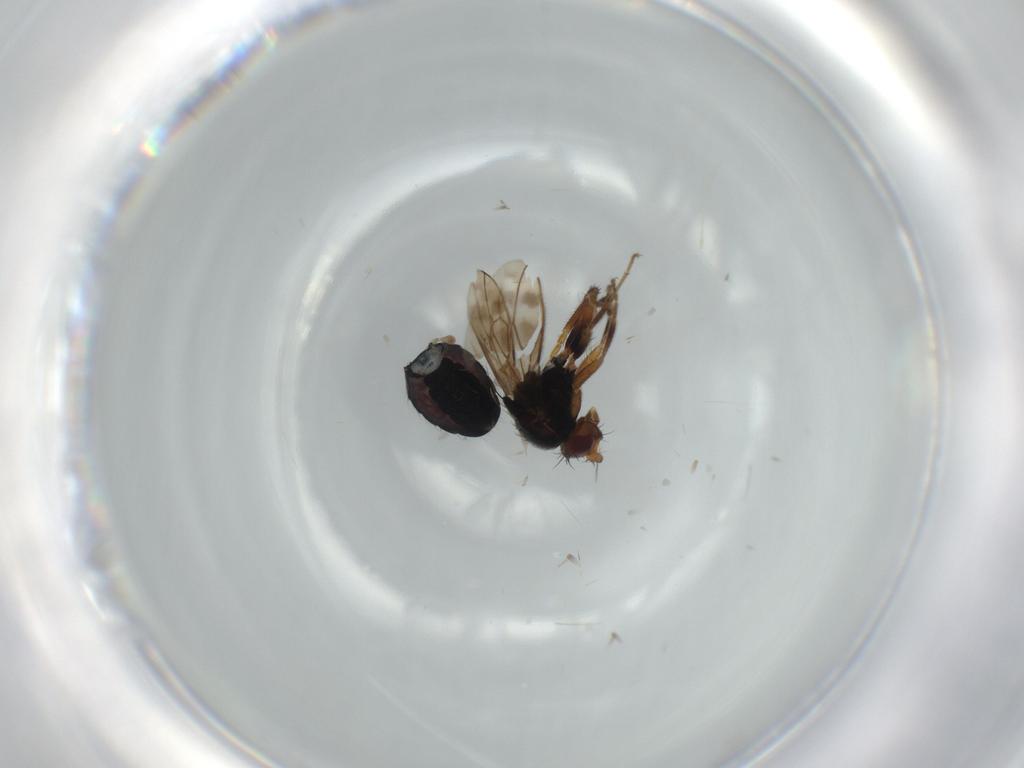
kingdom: Animalia
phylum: Arthropoda
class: Insecta
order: Diptera
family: Sphaeroceridae
